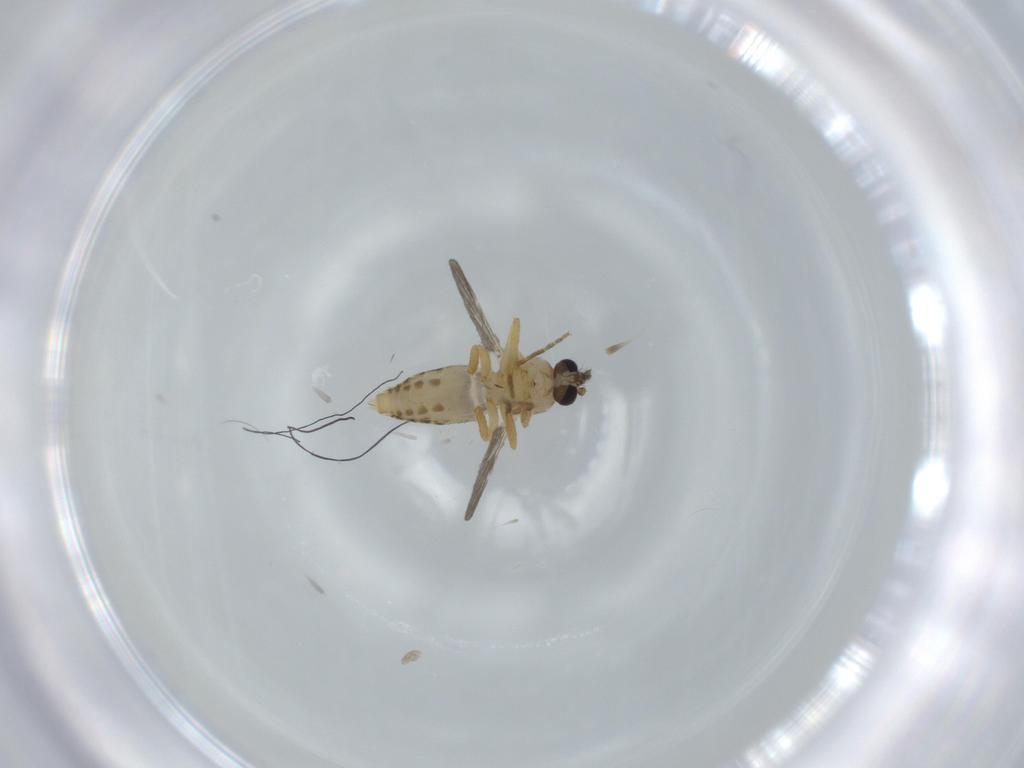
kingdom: Animalia
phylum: Arthropoda
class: Insecta
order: Diptera
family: Ceratopogonidae
